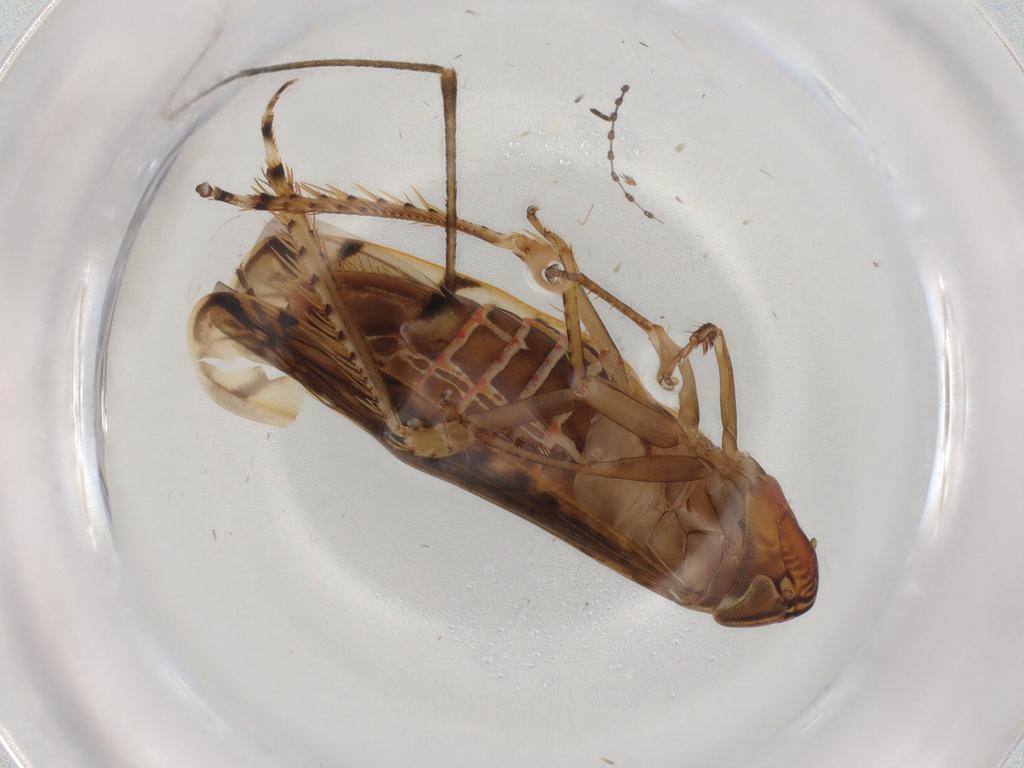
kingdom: Animalia
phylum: Arthropoda
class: Insecta
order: Hemiptera
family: Cicadellidae
